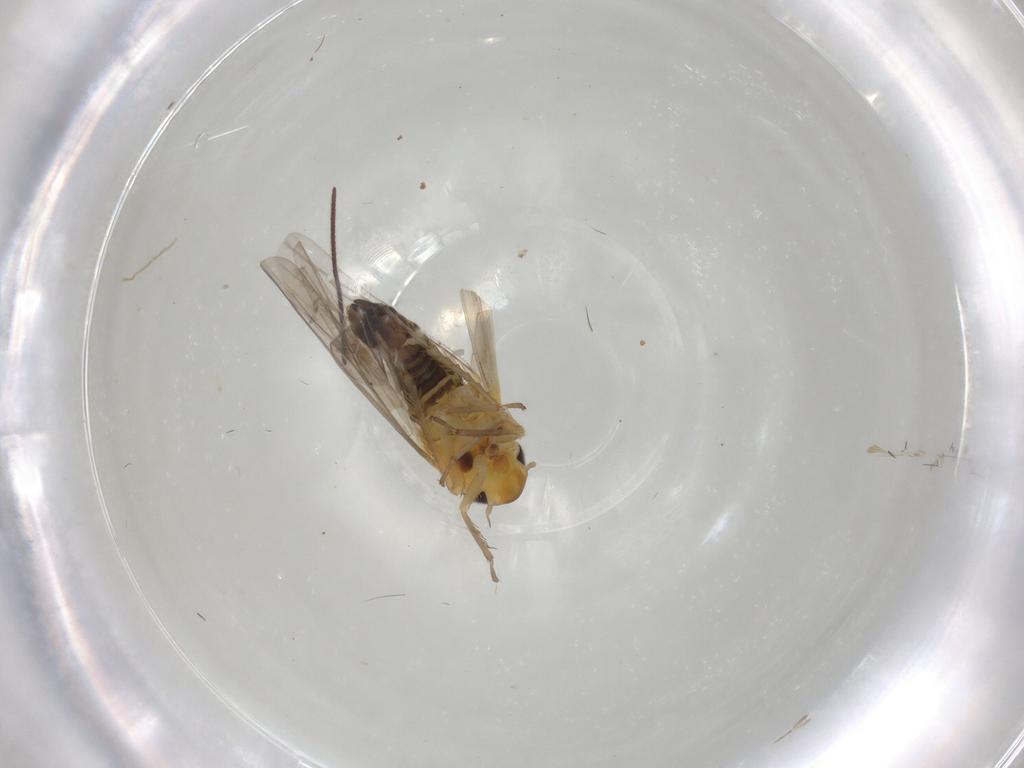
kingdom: Animalia
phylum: Arthropoda
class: Insecta
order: Hemiptera
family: Cicadellidae
